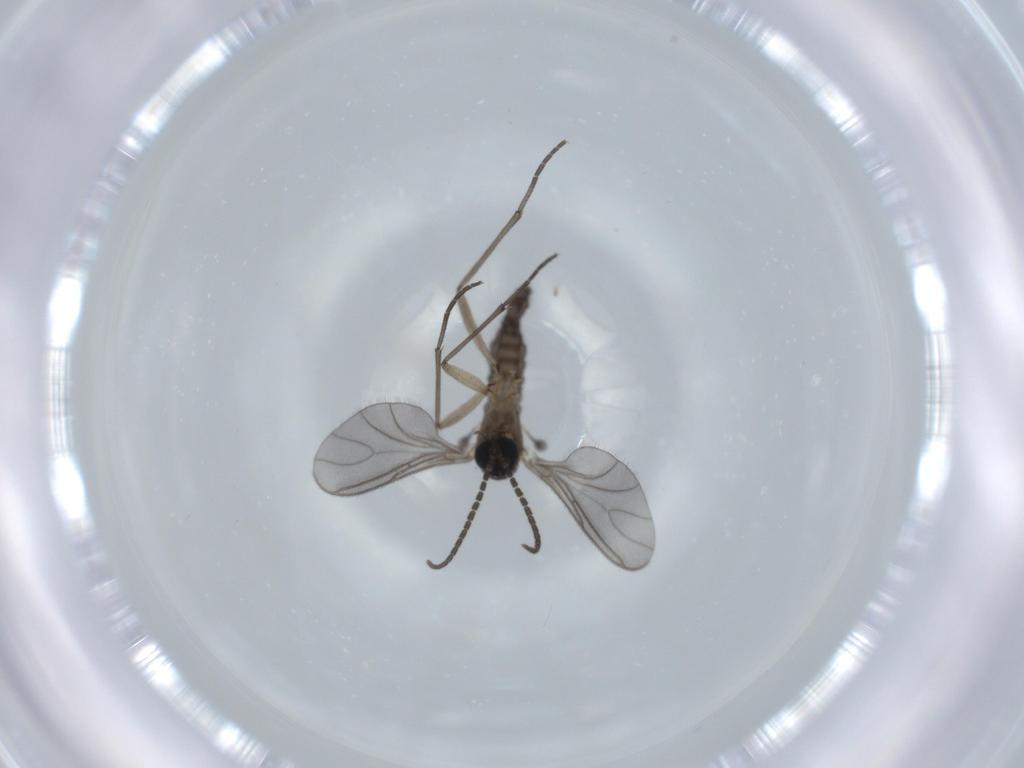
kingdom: Animalia
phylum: Arthropoda
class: Insecta
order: Diptera
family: Sciaridae
